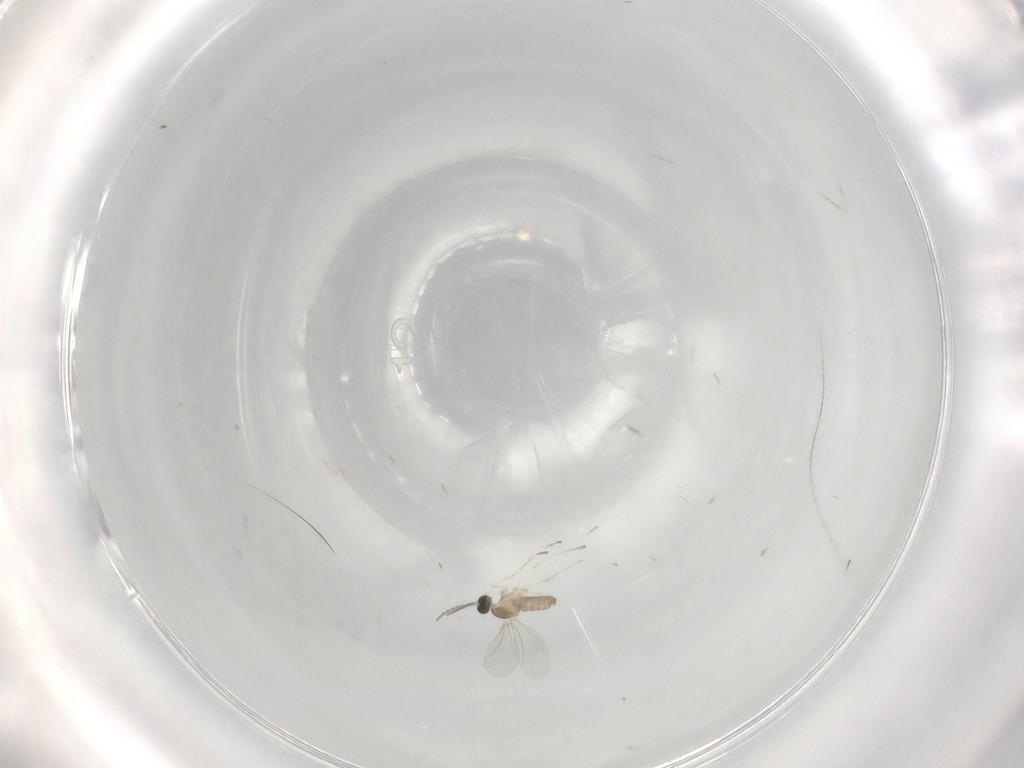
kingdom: Animalia
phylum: Arthropoda
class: Insecta
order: Diptera
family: Cecidomyiidae
